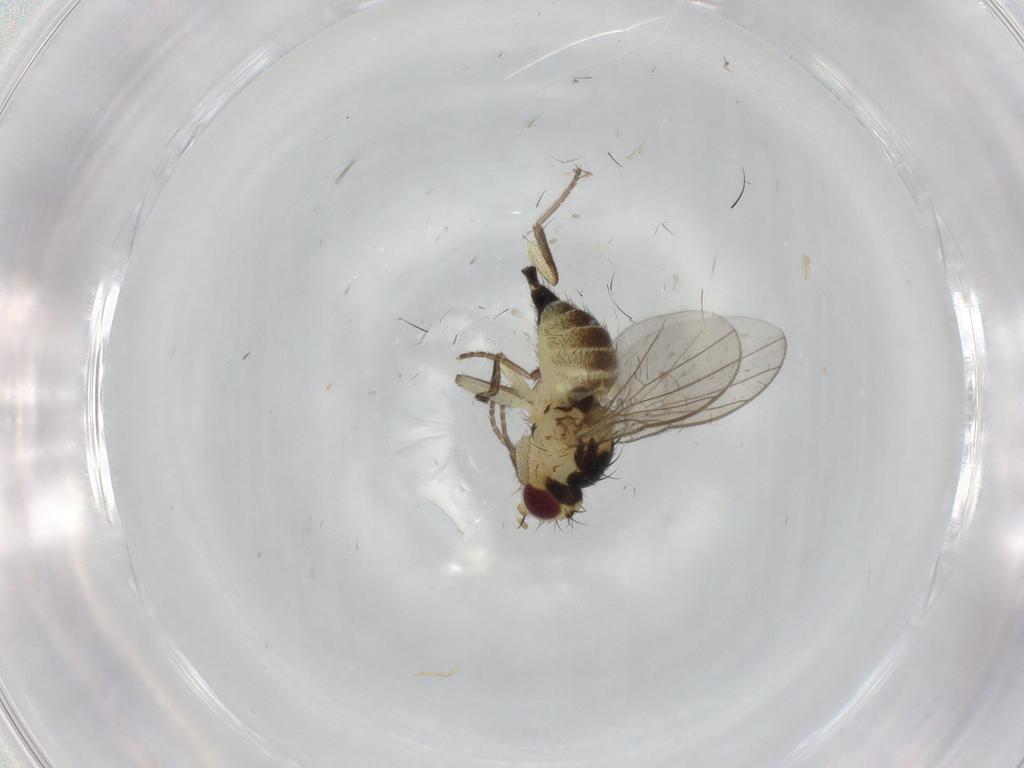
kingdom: Animalia
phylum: Arthropoda
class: Insecta
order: Diptera
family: Agromyzidae
